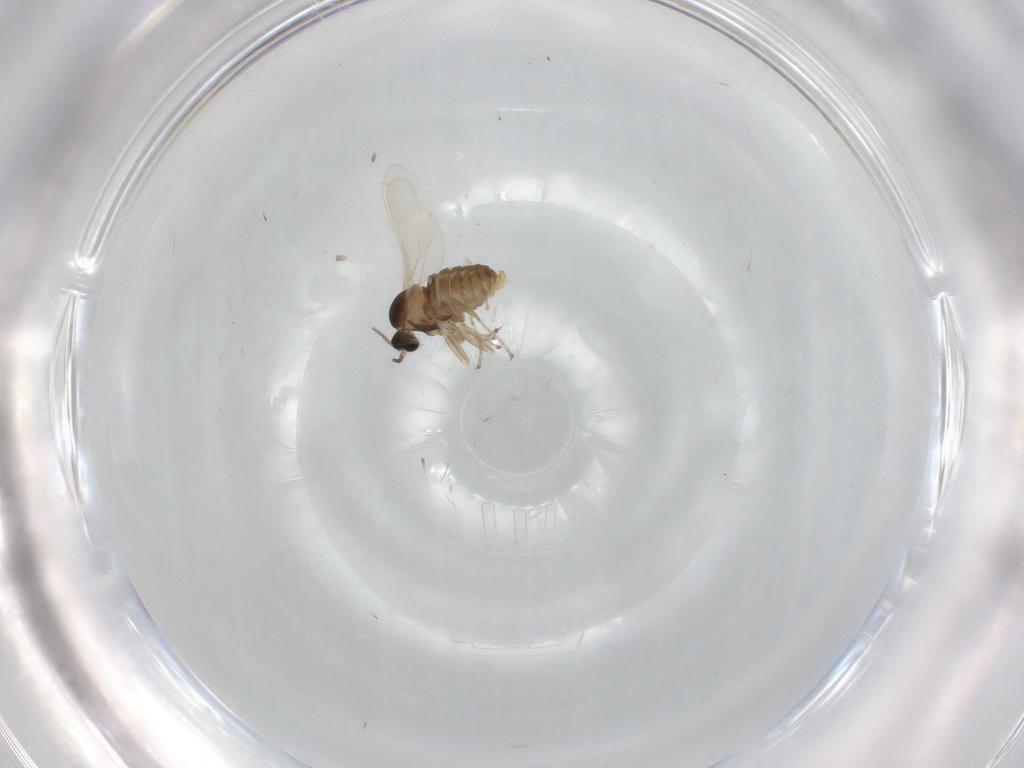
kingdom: Animalia
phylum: Arthropoda
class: Insecta
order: Diptera
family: Cecidomyiidae
